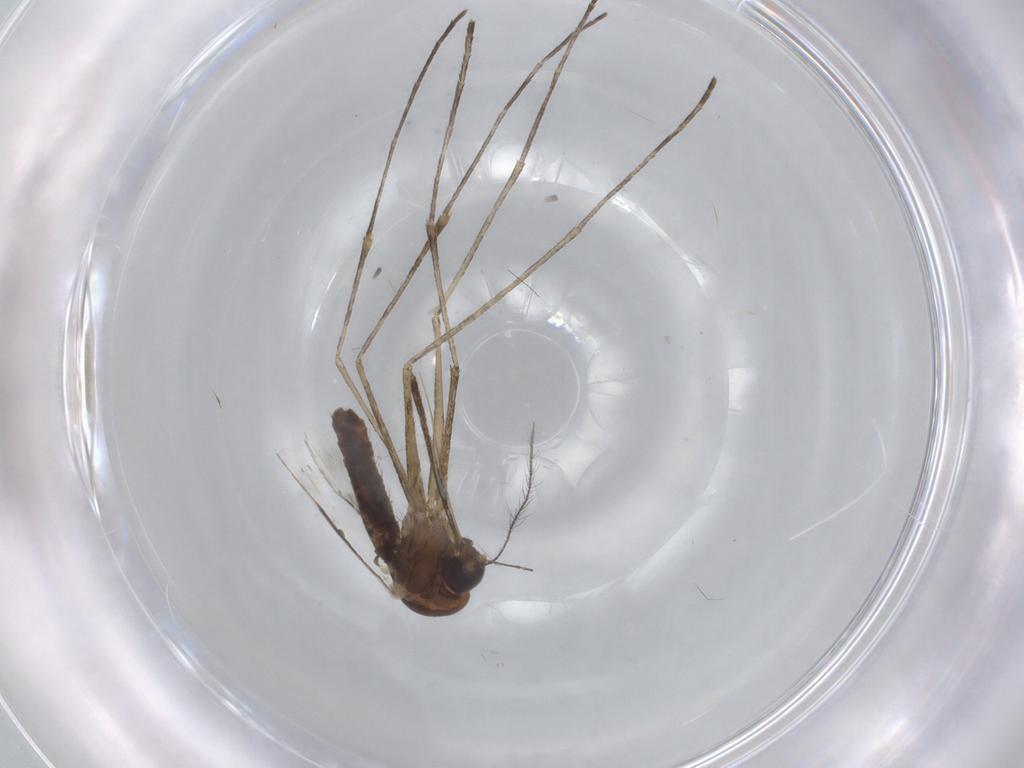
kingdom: Animalia
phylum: Arthropoda
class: Insecta
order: Diptera
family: Culicidae
